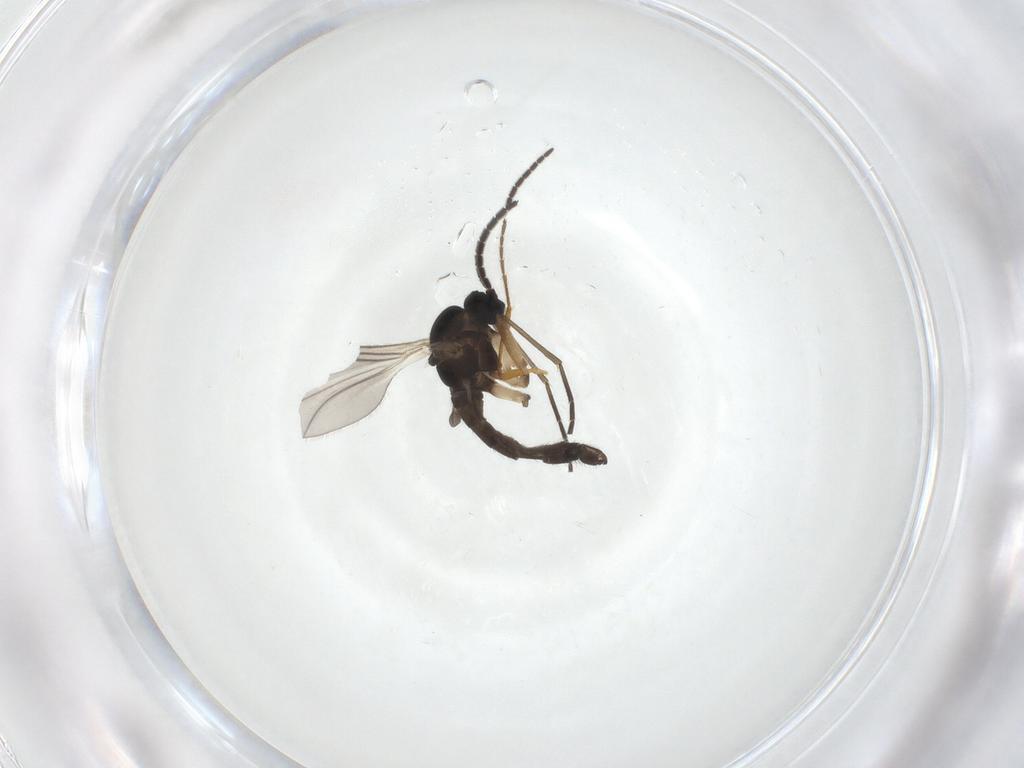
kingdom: Animalia
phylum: Arthropoda
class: Insecta
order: Diptera
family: Sciaridae
